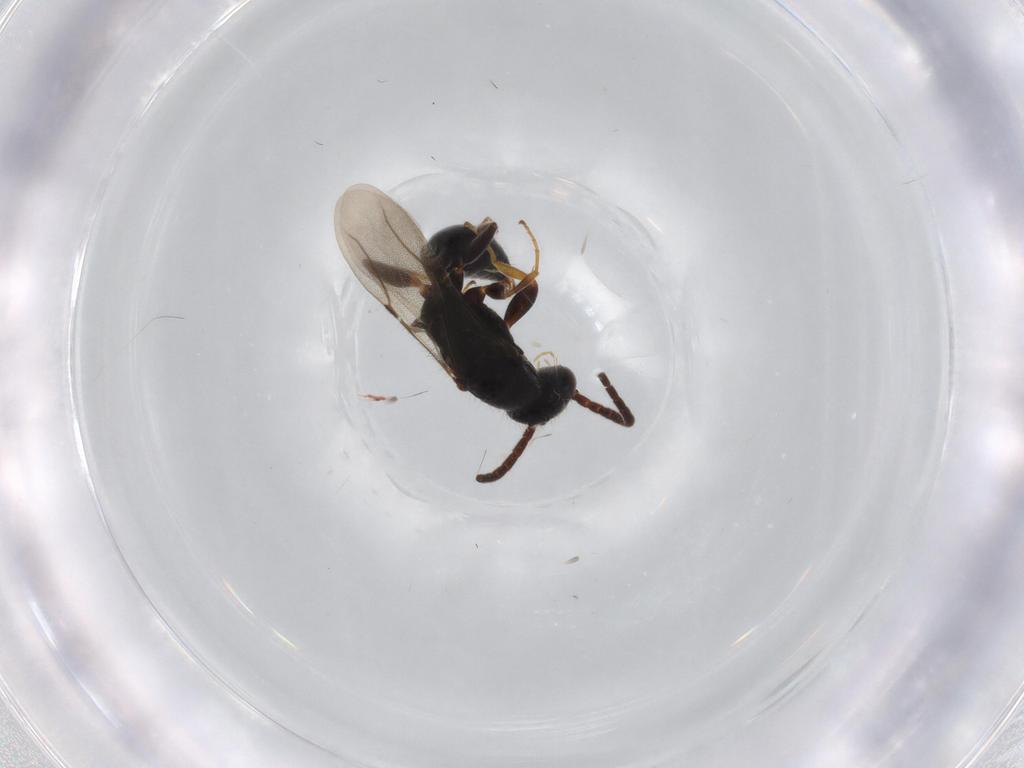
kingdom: Animalia
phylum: Arthropoda
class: Insecta
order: Hymenoptera
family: Bethylidae
